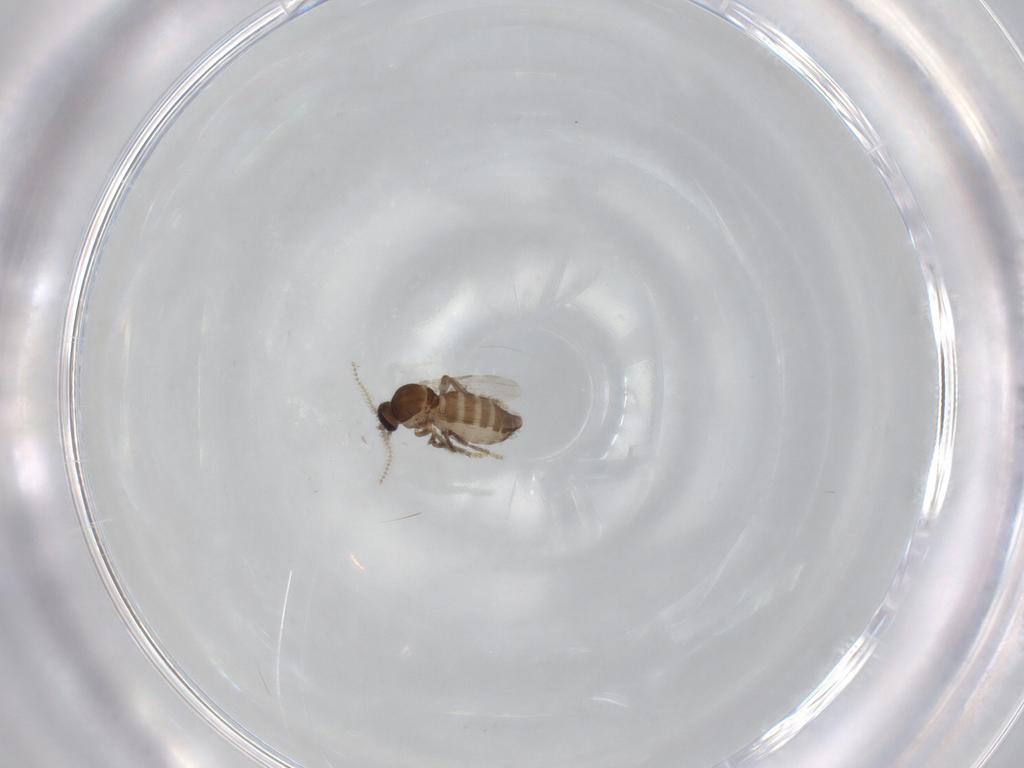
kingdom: Animalia
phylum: Arthropoda
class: Insecta
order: Diptera
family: Ceratopogonidae
